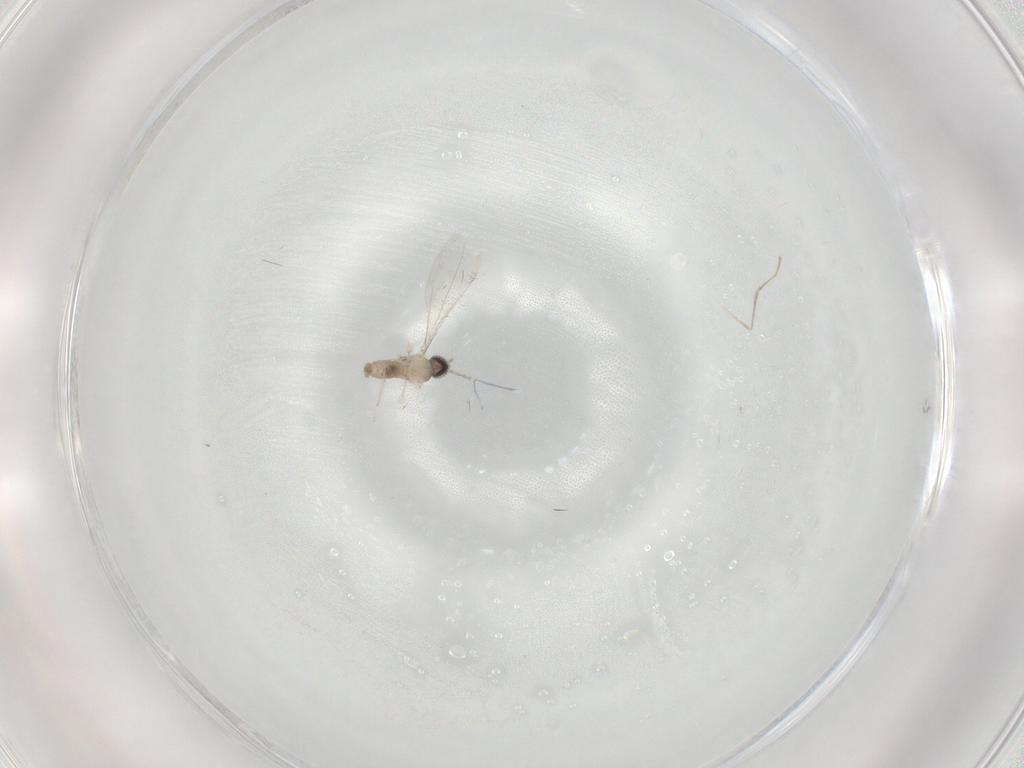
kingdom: Animalia
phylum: Arthropoda
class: Insecta
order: Diptera
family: Cecidomyiidae
